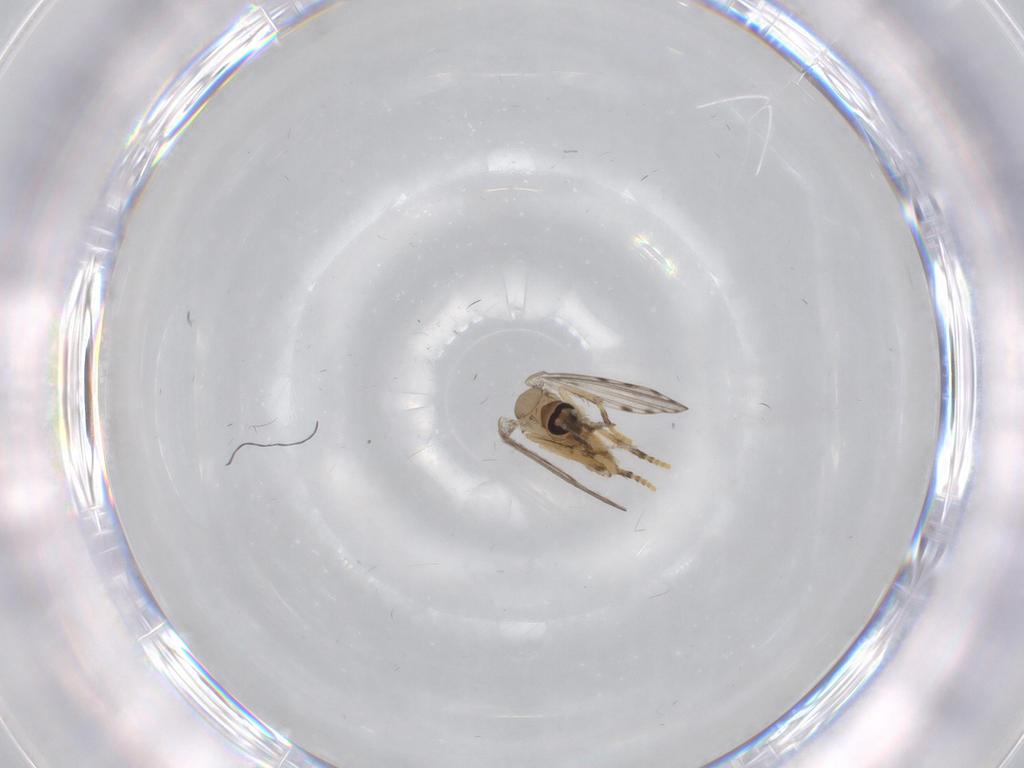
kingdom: Animalia
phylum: Arthropoda
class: Insecta
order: Diptera
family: Psychodidae
